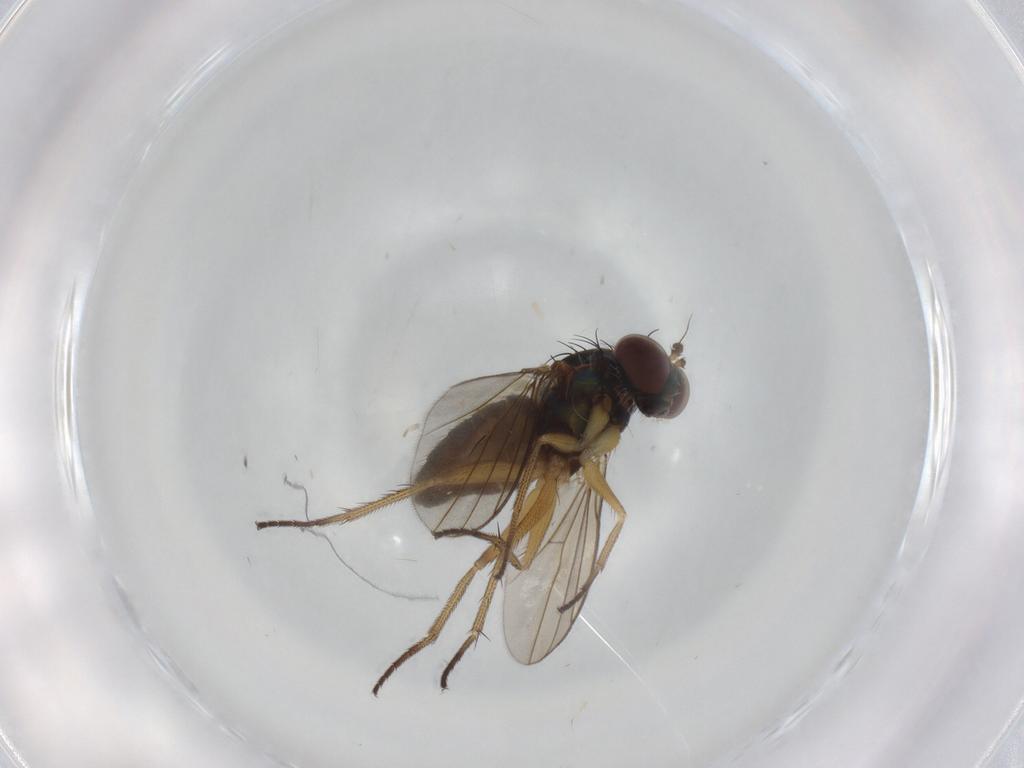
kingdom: Animalia
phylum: Arthropoda
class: Insecta
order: Diptera
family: Dolichopodidae
